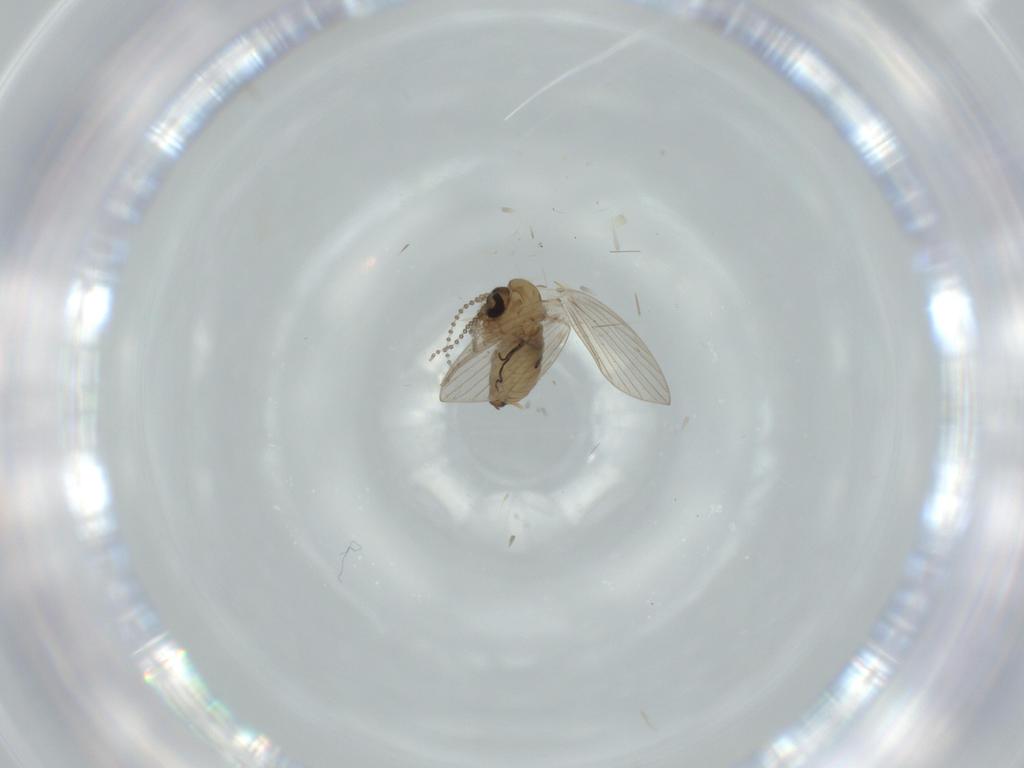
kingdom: Animalia
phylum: Arthropoda
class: Insecta
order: Diptera
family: Psychodidae
